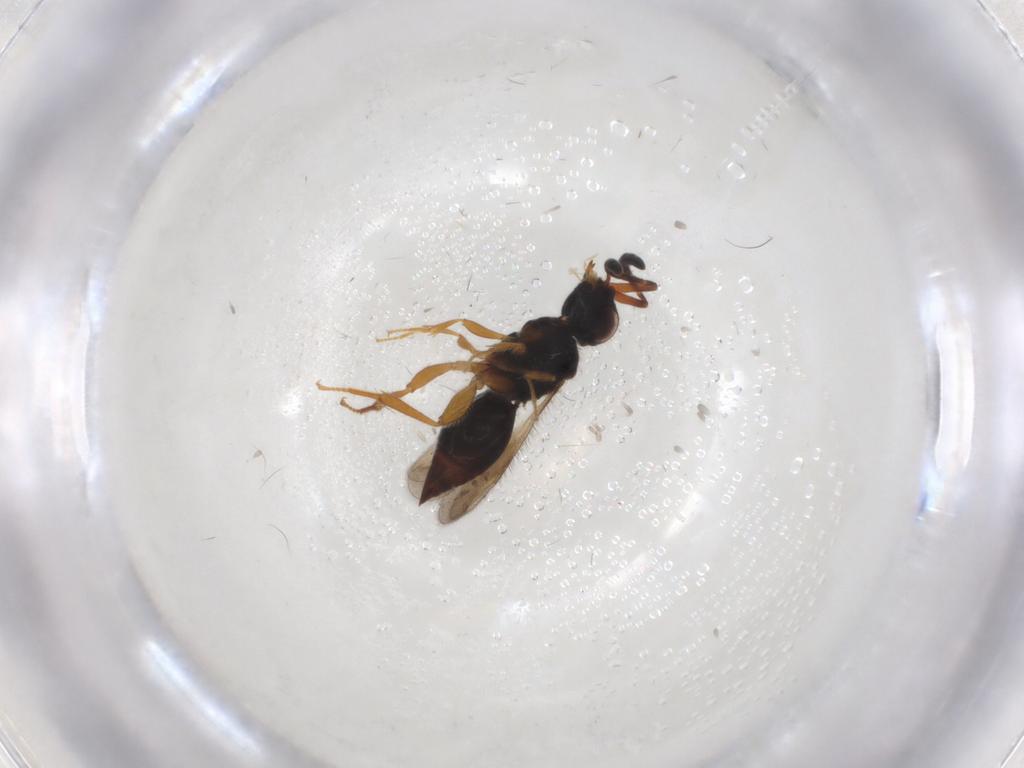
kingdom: Animalia
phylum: Arthropoda
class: Insecta
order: Hymenoptera
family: Formicidae
